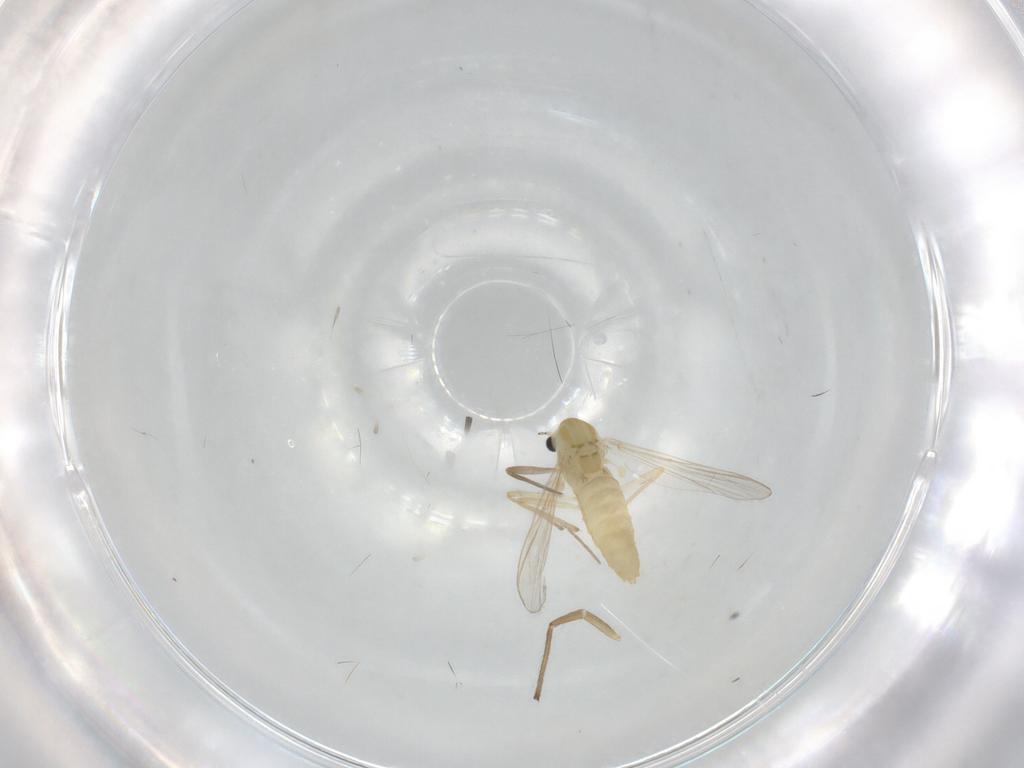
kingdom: Animalia
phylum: Arthropoda
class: Insecta
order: Diptera
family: Chironomidae
